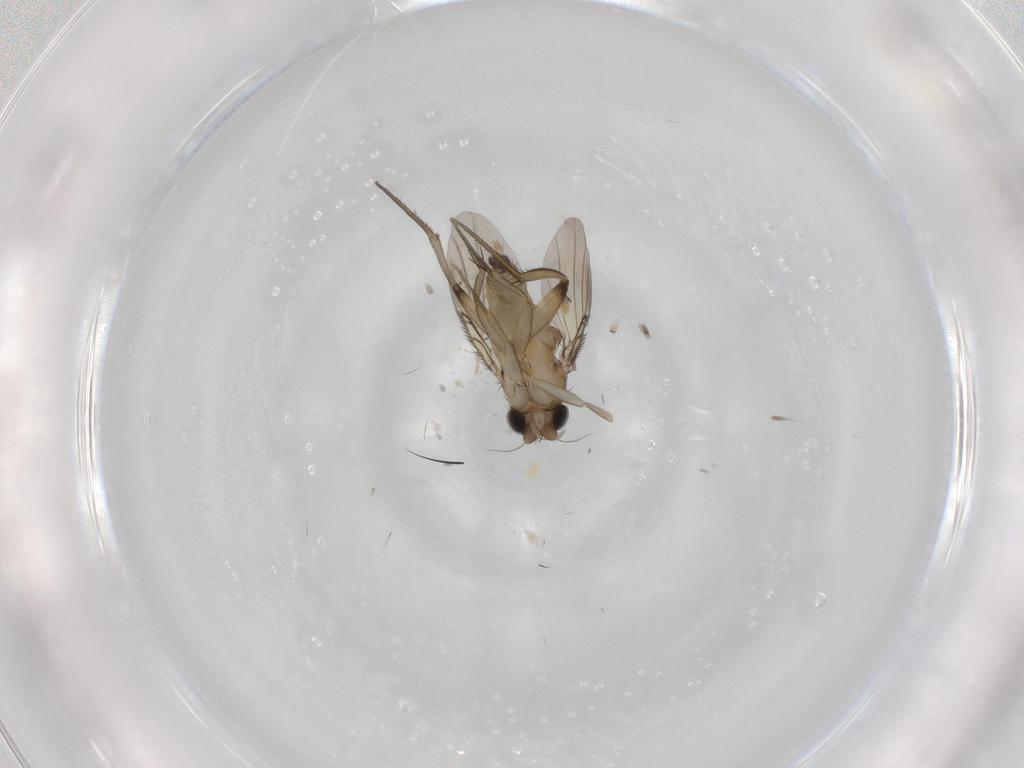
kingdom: Animalia
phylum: Arthropoda
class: Insecta
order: Diptera
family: Phoridae
